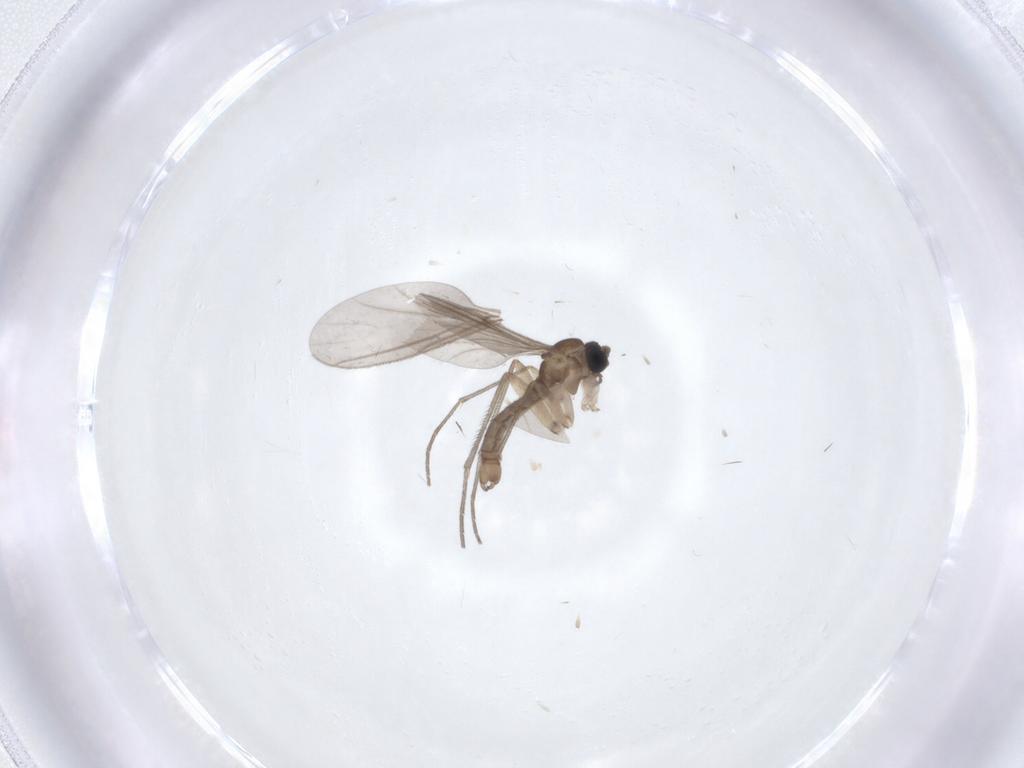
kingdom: Animalia
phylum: Arthropoda
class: Insecta
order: Diptera
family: Sciaridae
